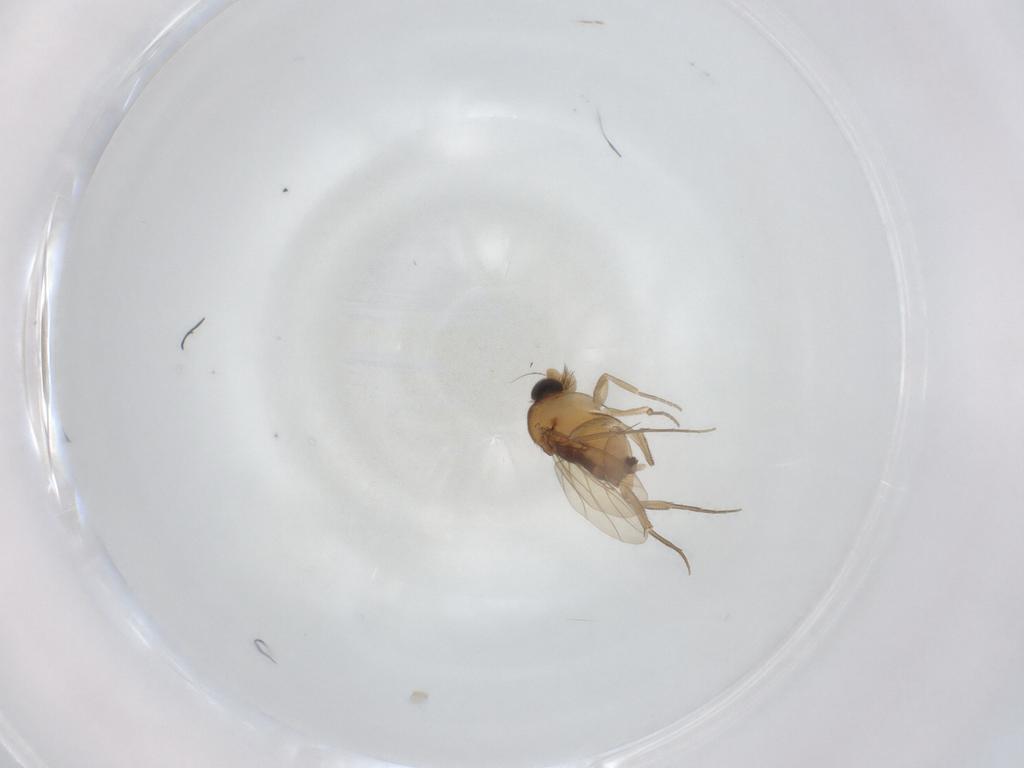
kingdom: Animalia
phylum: Arthropoda
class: Insecta
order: Diptera
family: Phoridae
